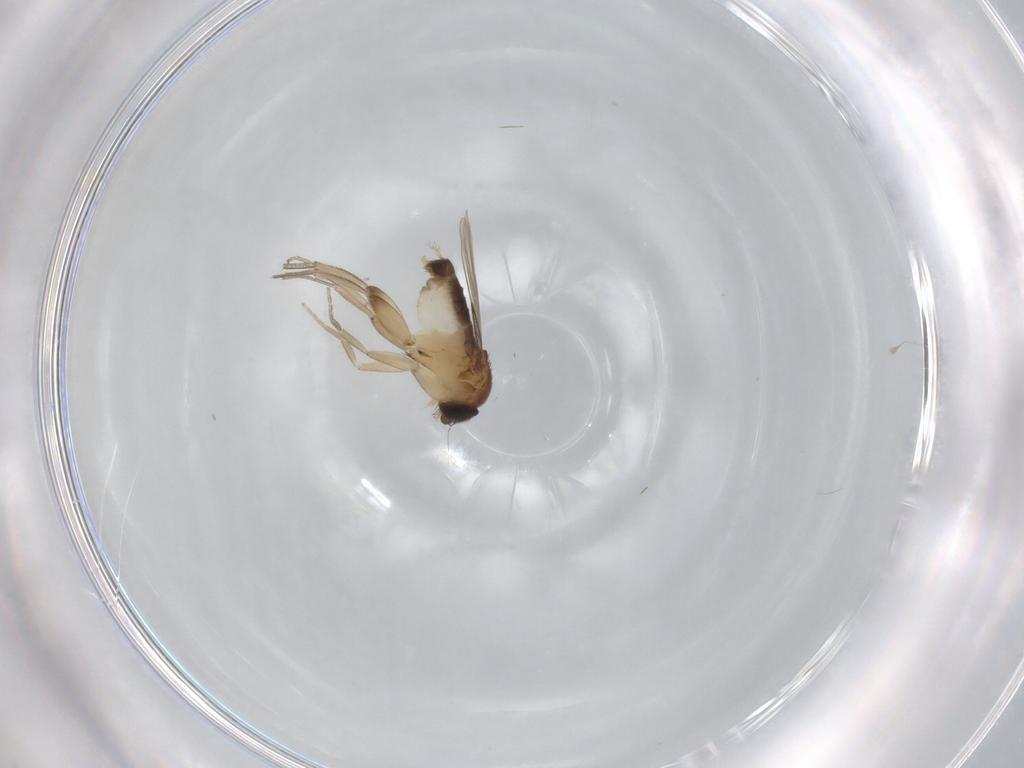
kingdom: Animalia
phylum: Arthropoda
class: Insecta
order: Diptera
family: Phoridae
